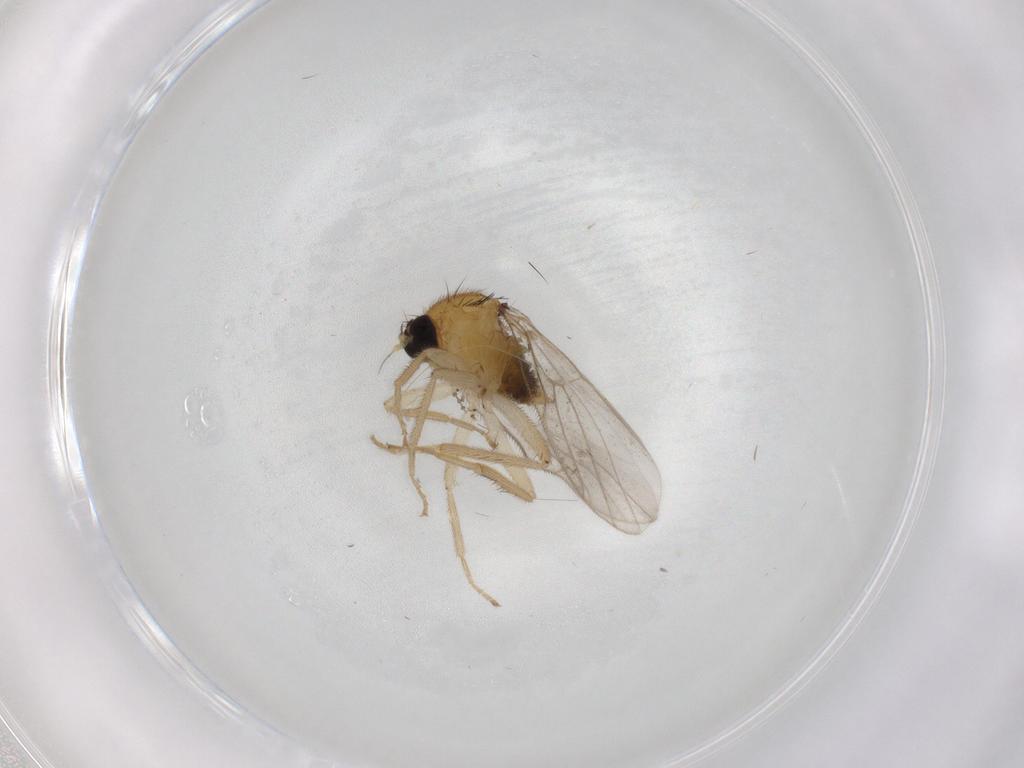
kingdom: Animalia
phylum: Arthropoda
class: Insecta
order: Diptera
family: Hybotidae
